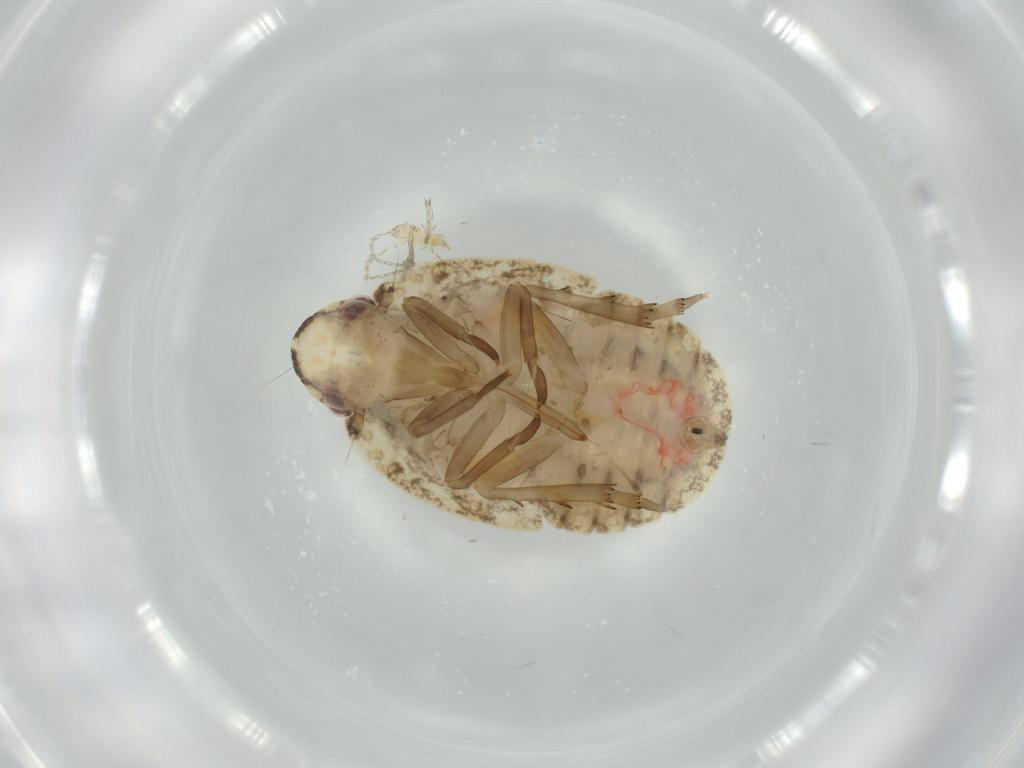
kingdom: Animalia
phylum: Arthropoda
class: Insecta
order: Hemiptera
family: Flatidae
